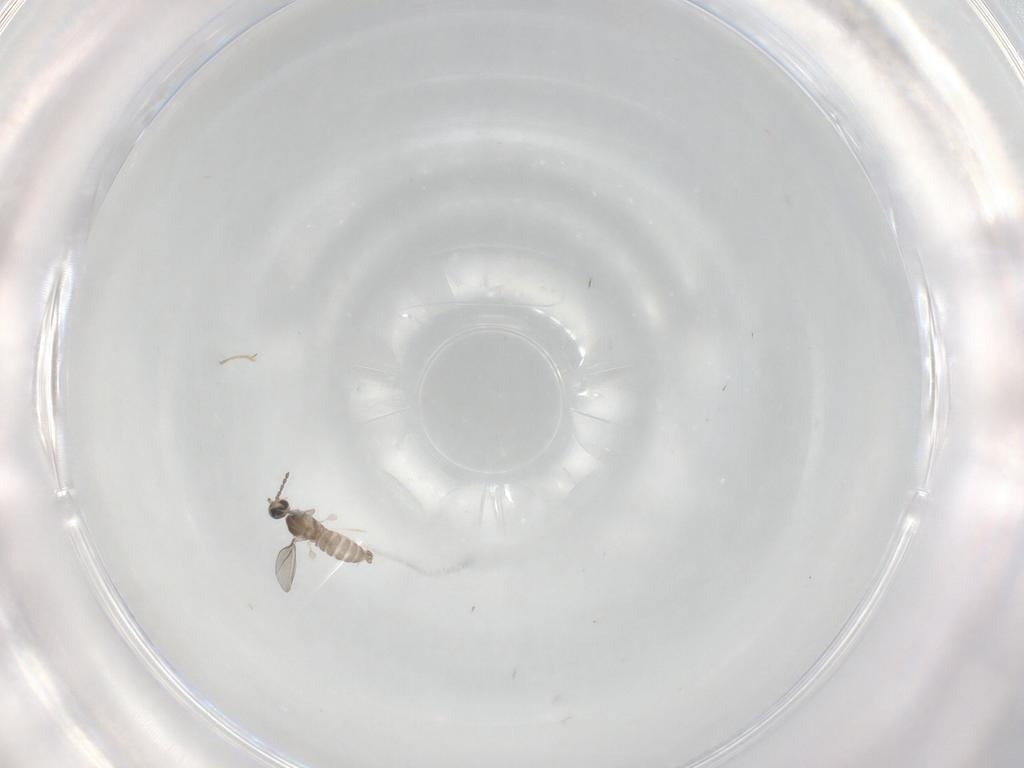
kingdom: Animalia
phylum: Arthropoda
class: Insecta
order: Diptera
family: Cecidomyiidae
